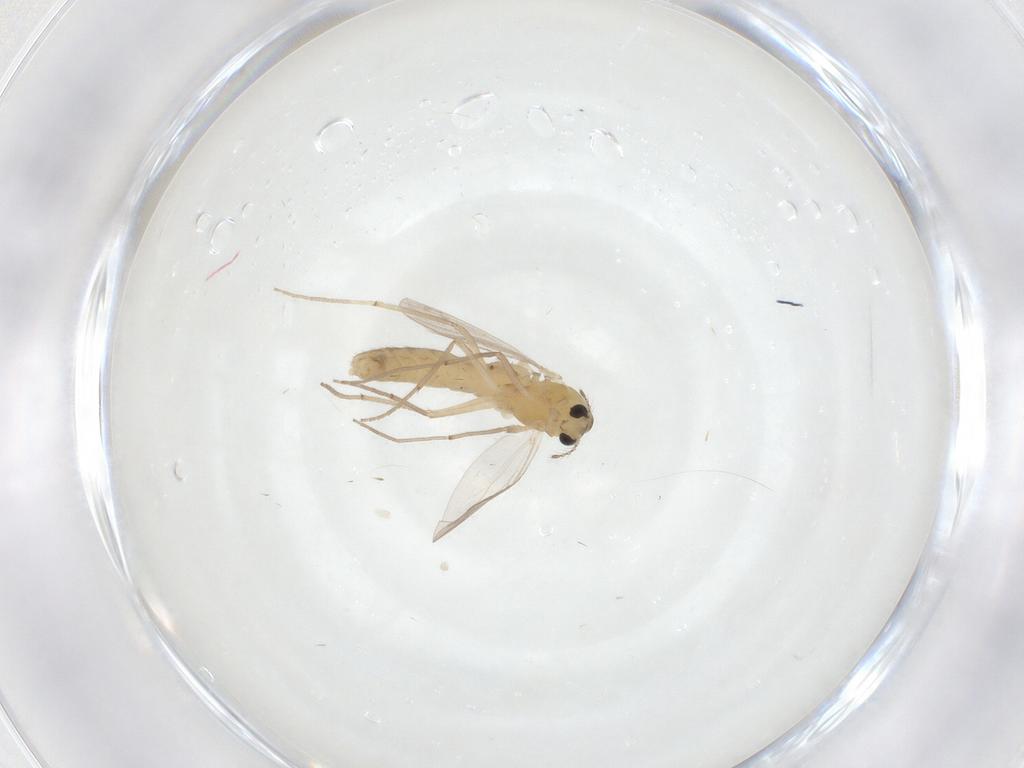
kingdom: Animalia
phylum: Arthropoda
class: Insecta
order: Diptera
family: Chironomidae
